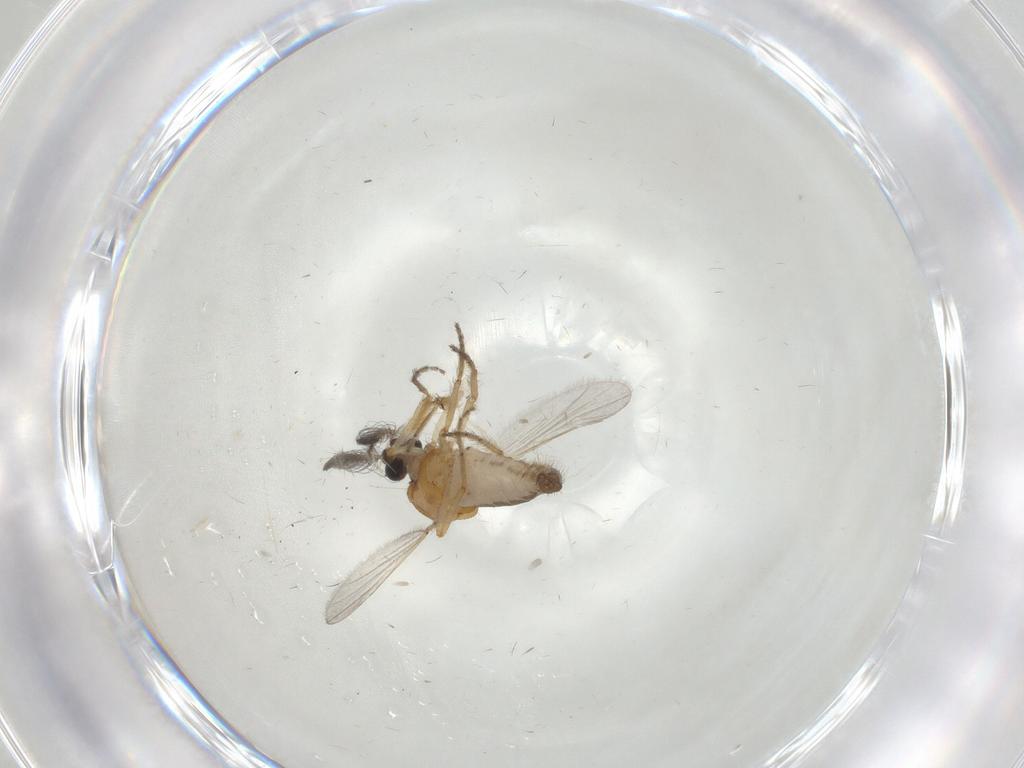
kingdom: Animalia
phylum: Arthropoda
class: Insecta
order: Diptera
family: Ceratopogonidae
